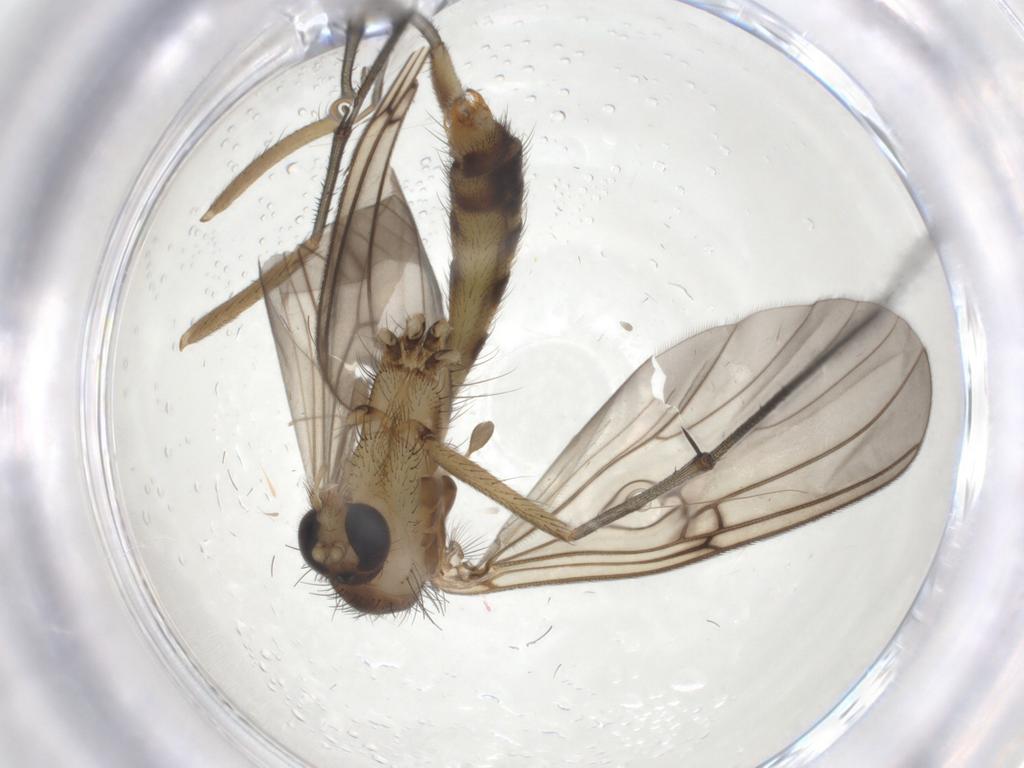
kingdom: Animalia
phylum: Arthropoda
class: Insecta
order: Diptera
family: Mycetophilidae
